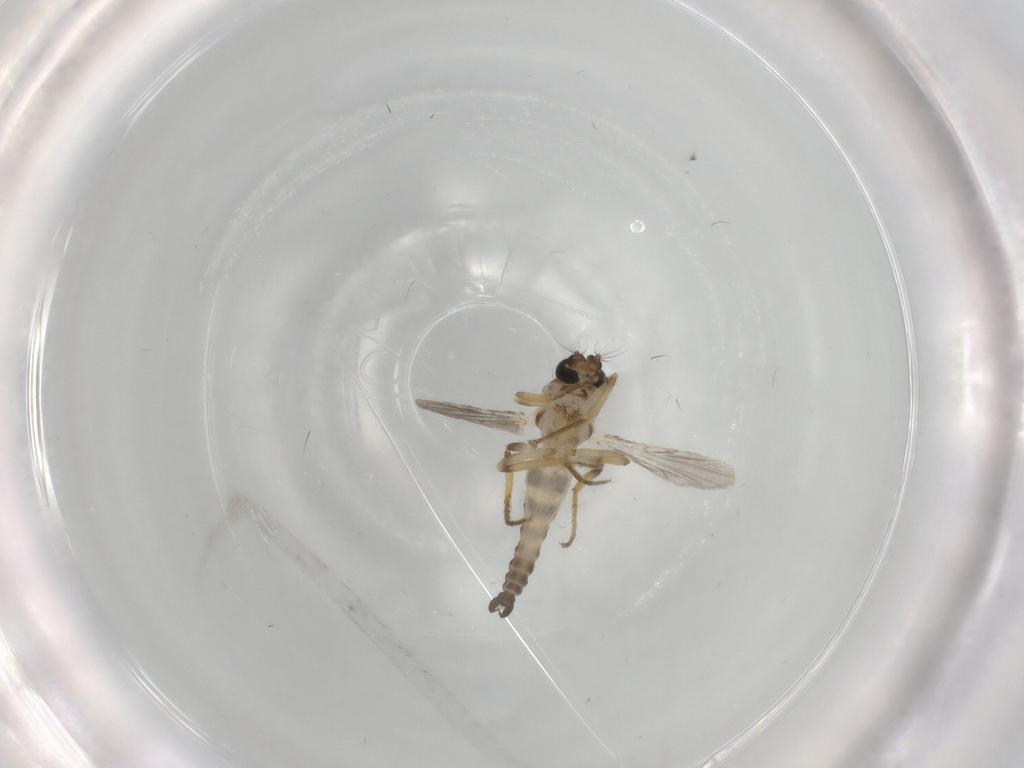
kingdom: Animalia
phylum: Arthropoda
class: Insecta
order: Diptera
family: Ceratopogonidae
